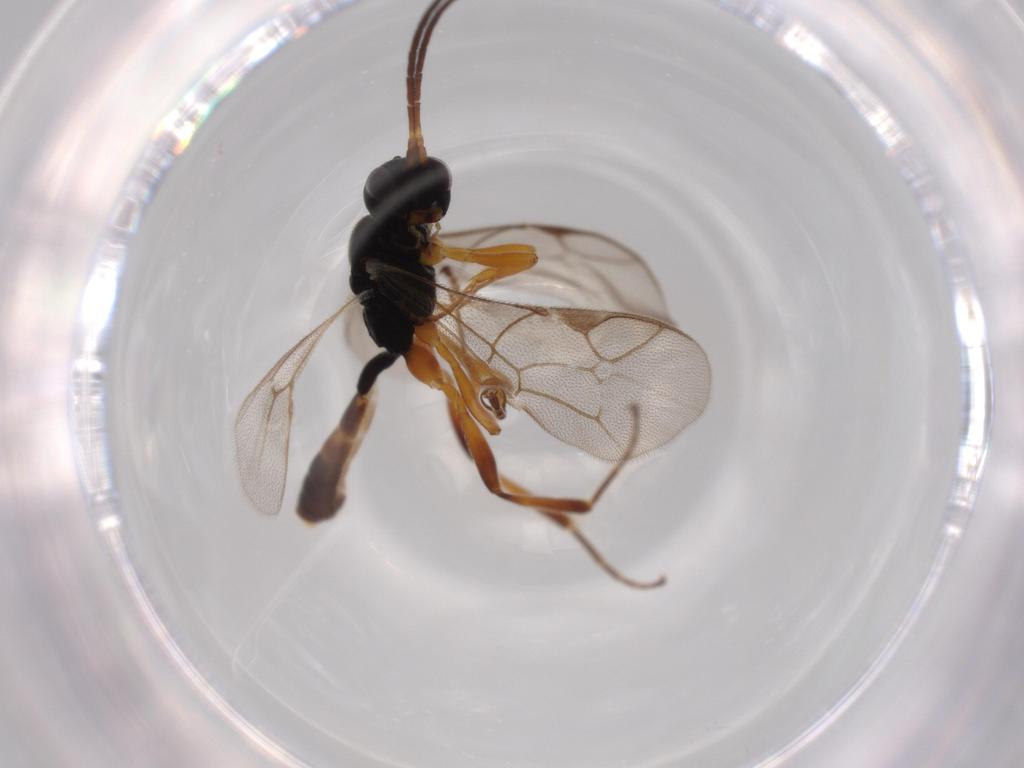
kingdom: Animalia
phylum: Arthropoda
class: Insecta
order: Hymenoptera
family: Ichneumonidae
